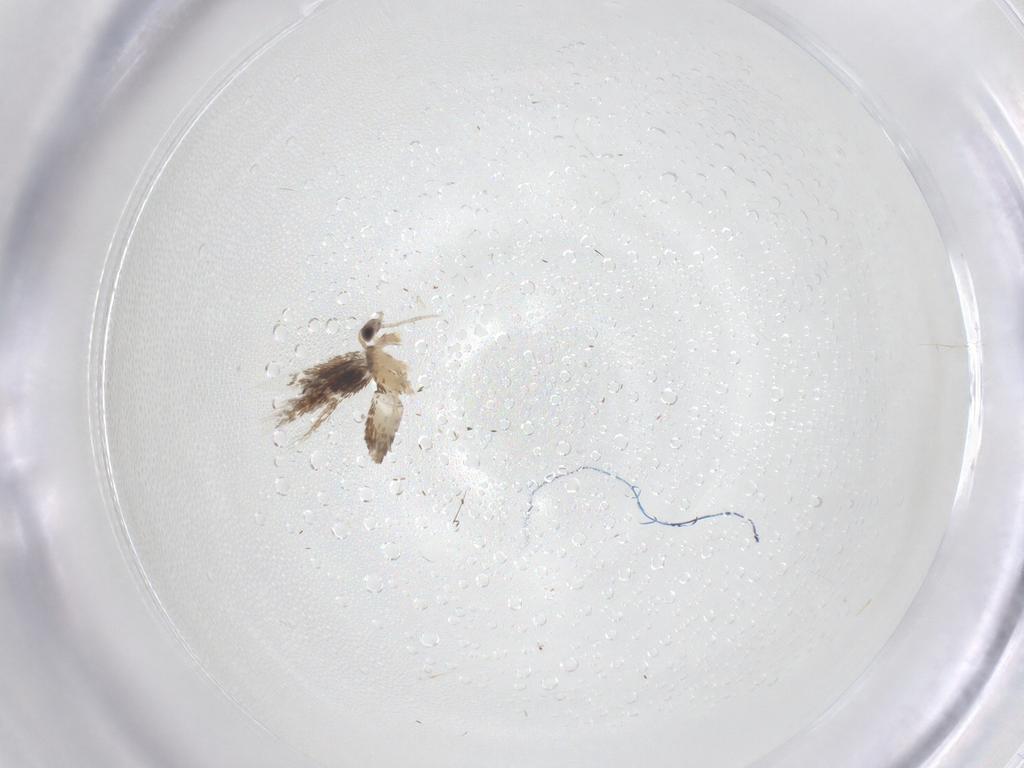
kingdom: Animalia
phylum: Arthropoda
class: Insecta
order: Lepidoptera
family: Nepticulidae
